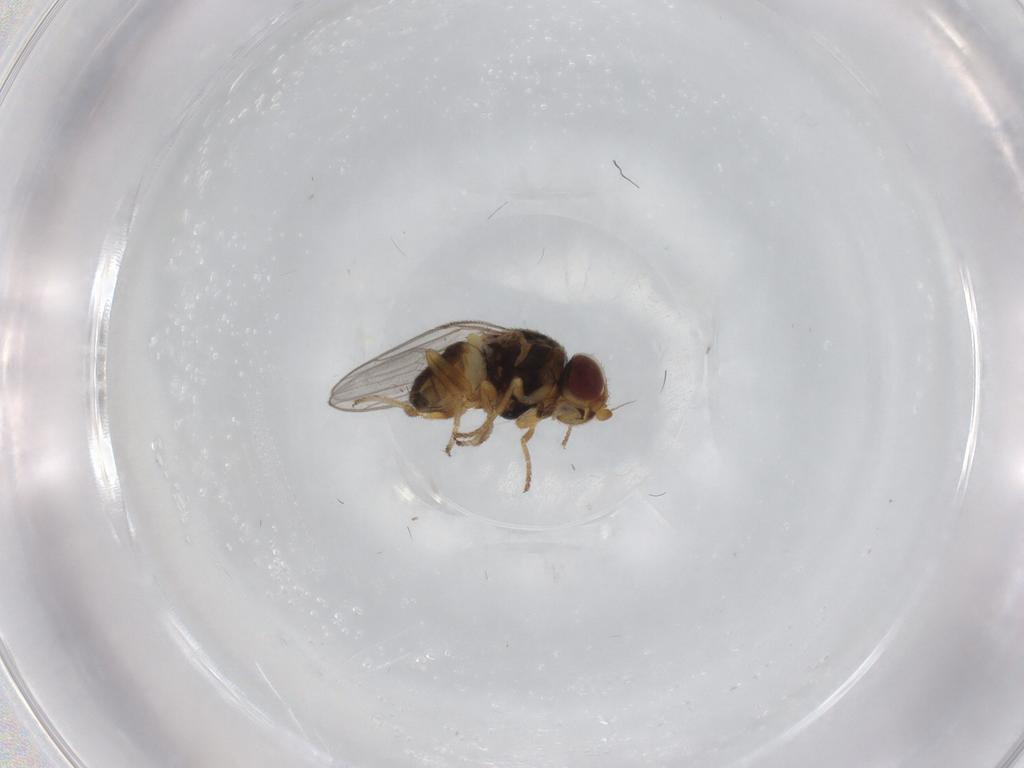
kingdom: Animalia
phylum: Arthropoda
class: Insecta
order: Diptera
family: Chloropidae
